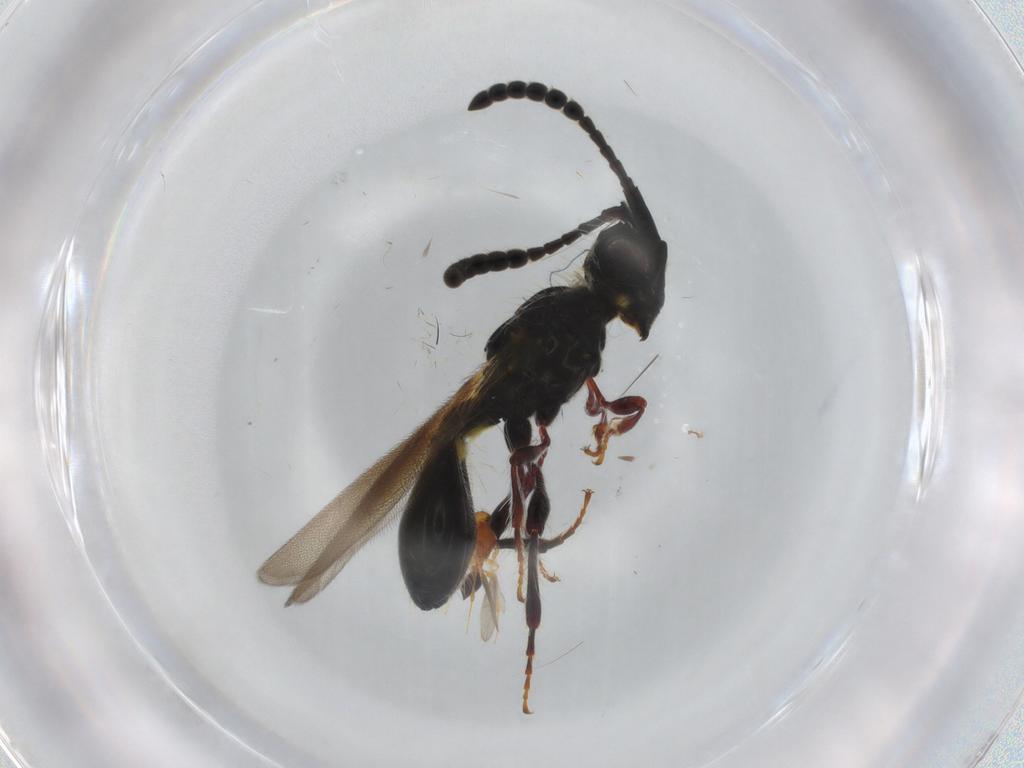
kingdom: Animalia
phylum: Arthropoda
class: Insecta
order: Hymenoptera
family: Platygastridae
